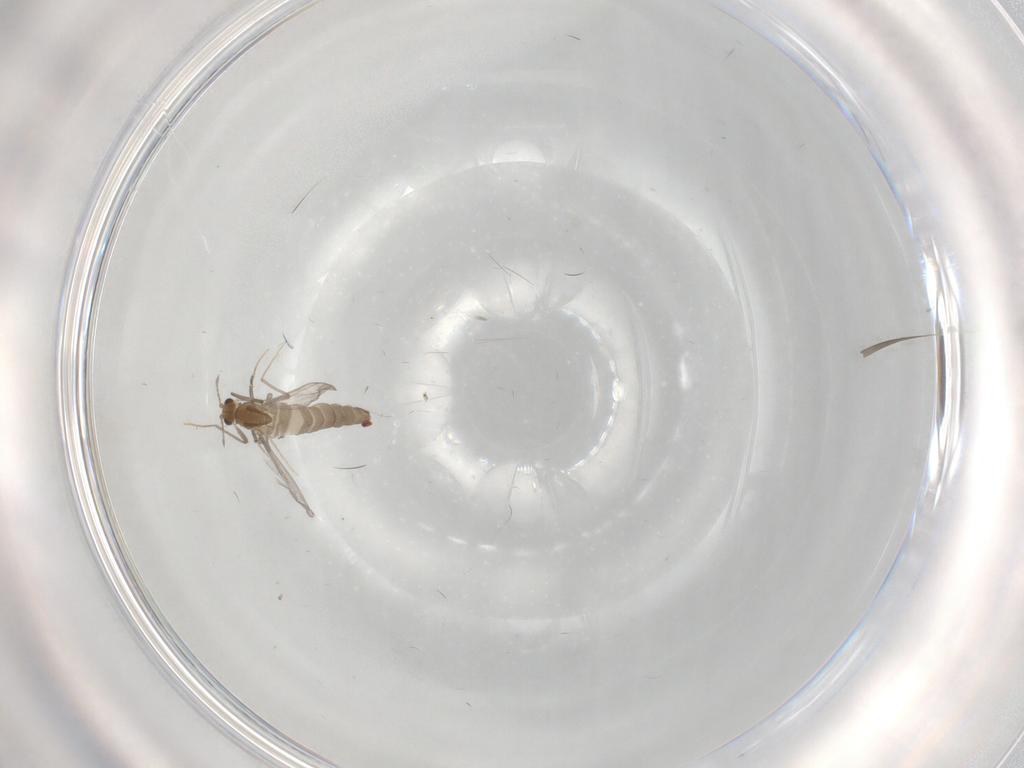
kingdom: Animalia
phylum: Arthropoda
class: Insecta
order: Diptera
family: Chironomidae
